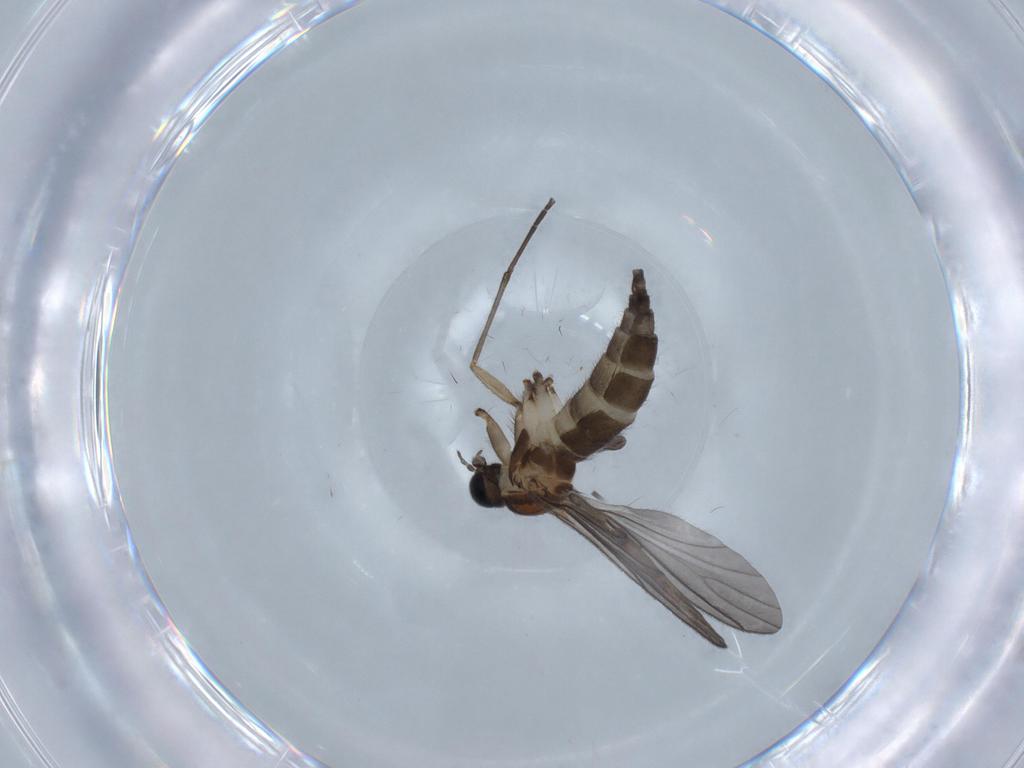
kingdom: Animalia
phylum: Arthropoda
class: Insecta
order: Diptera
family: Sciaridae
